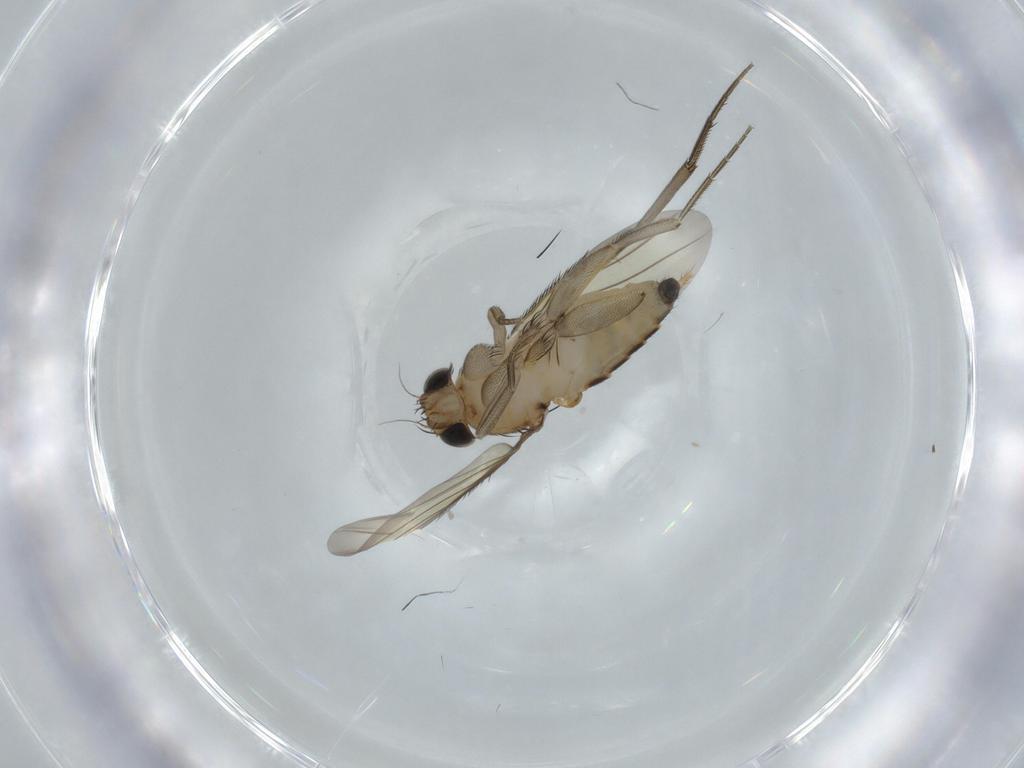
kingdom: Animalia
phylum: Arthropoda
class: Insecta
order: Diptera
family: Phoridae
